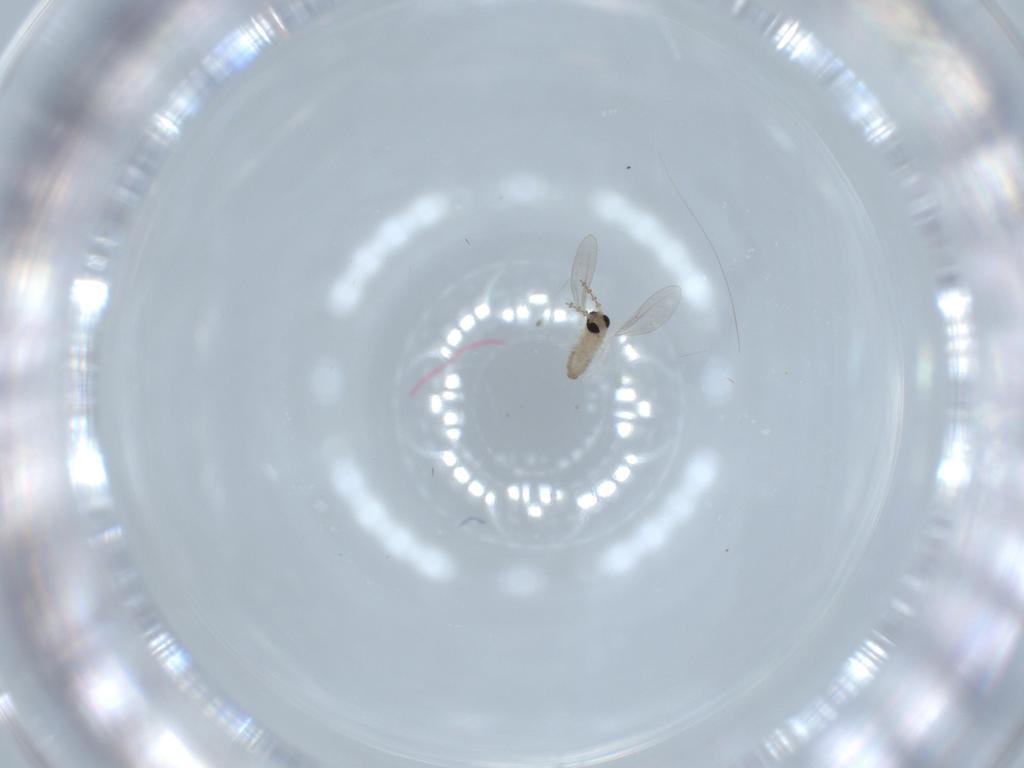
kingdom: Animalia
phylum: Arthropoda
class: Insecta
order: Diptera
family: Cecidomyiidae
